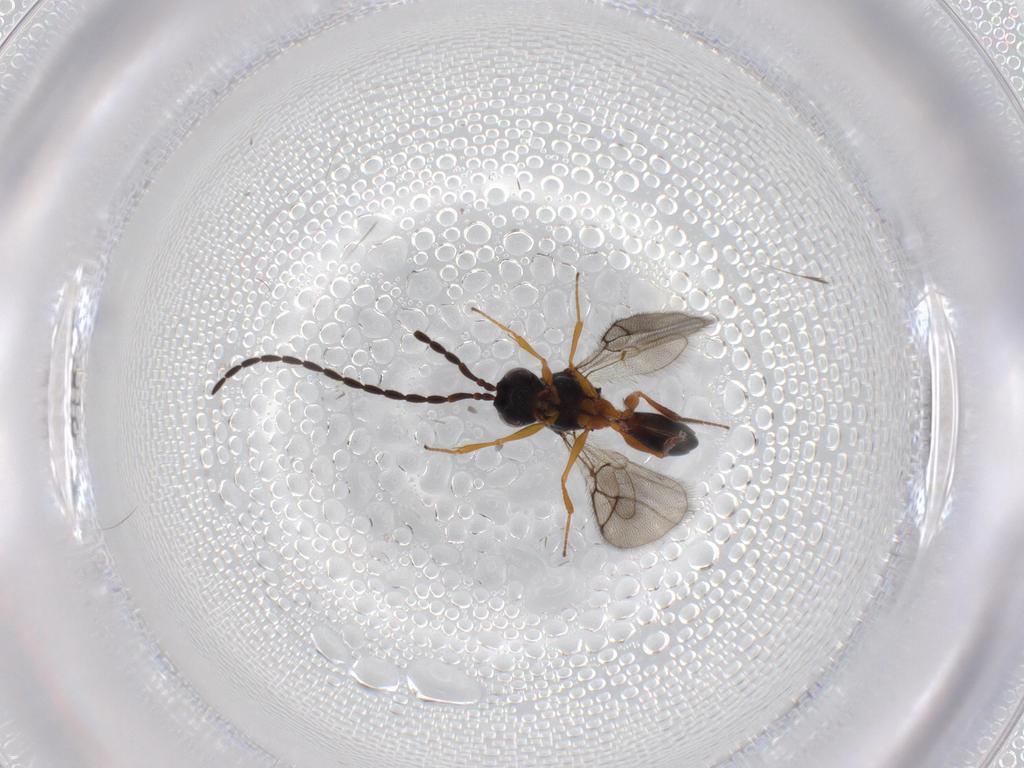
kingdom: Animalia
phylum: Arthropoda
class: Insecta
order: Hymenoptera
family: Figitidae
